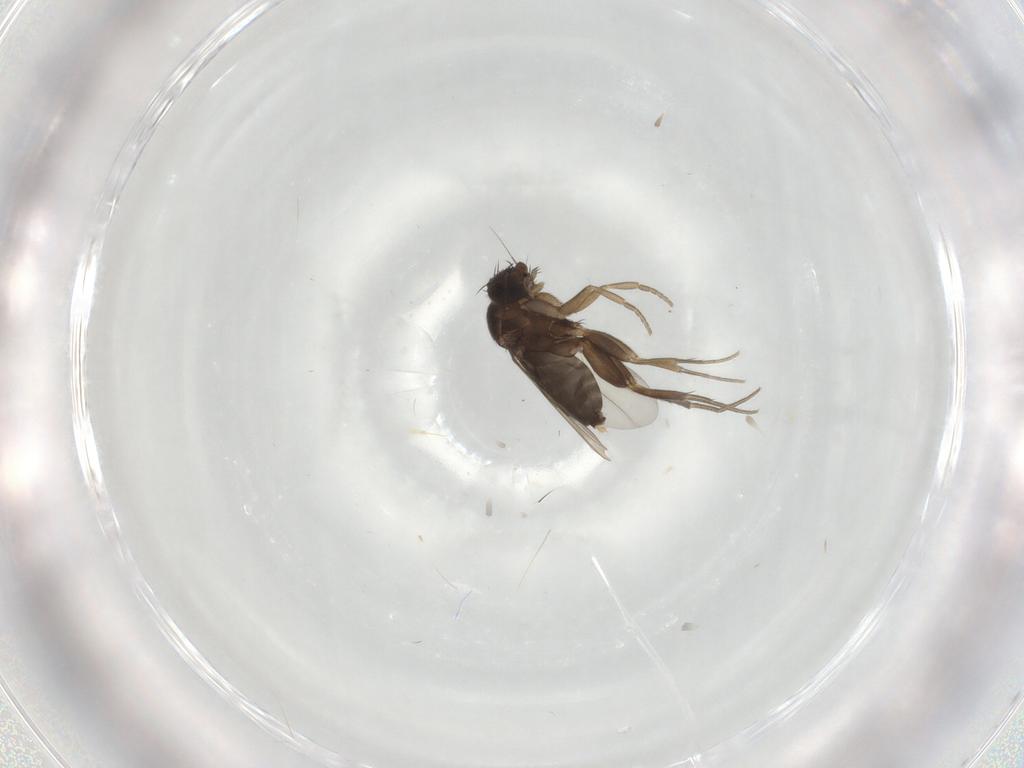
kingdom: Animalia
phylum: Arthropoda
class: Insecta
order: Diptera
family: Sciaridae
